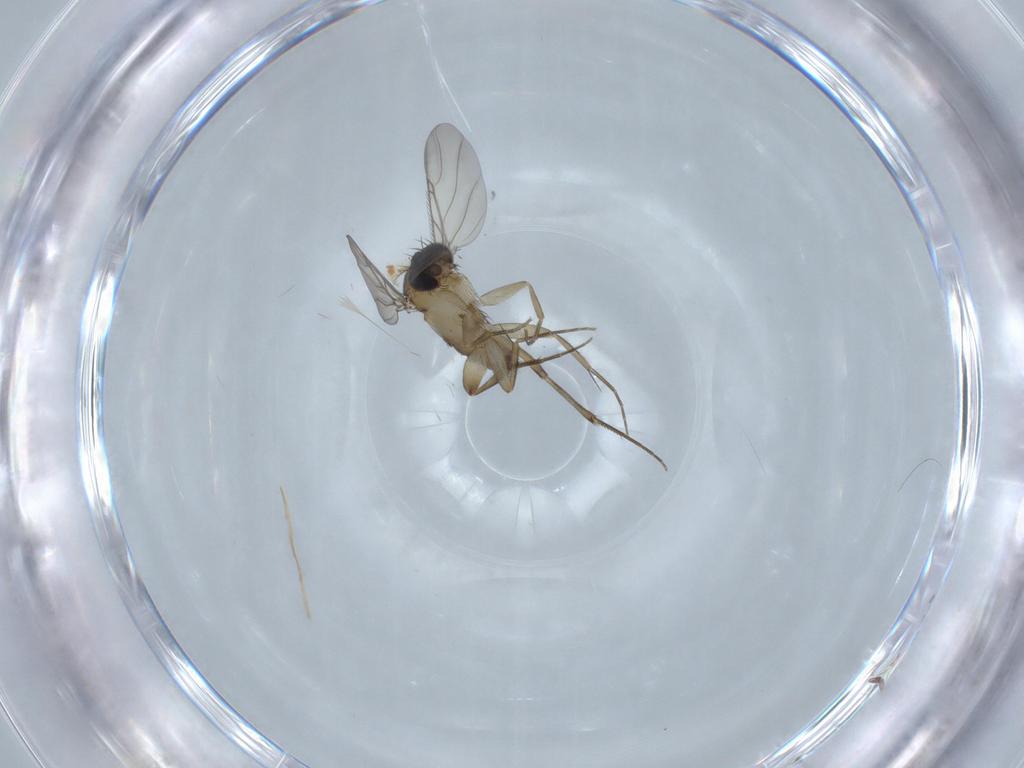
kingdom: Animalia
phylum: Arthropoda
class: Insecta
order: Diptera
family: Phoridae
